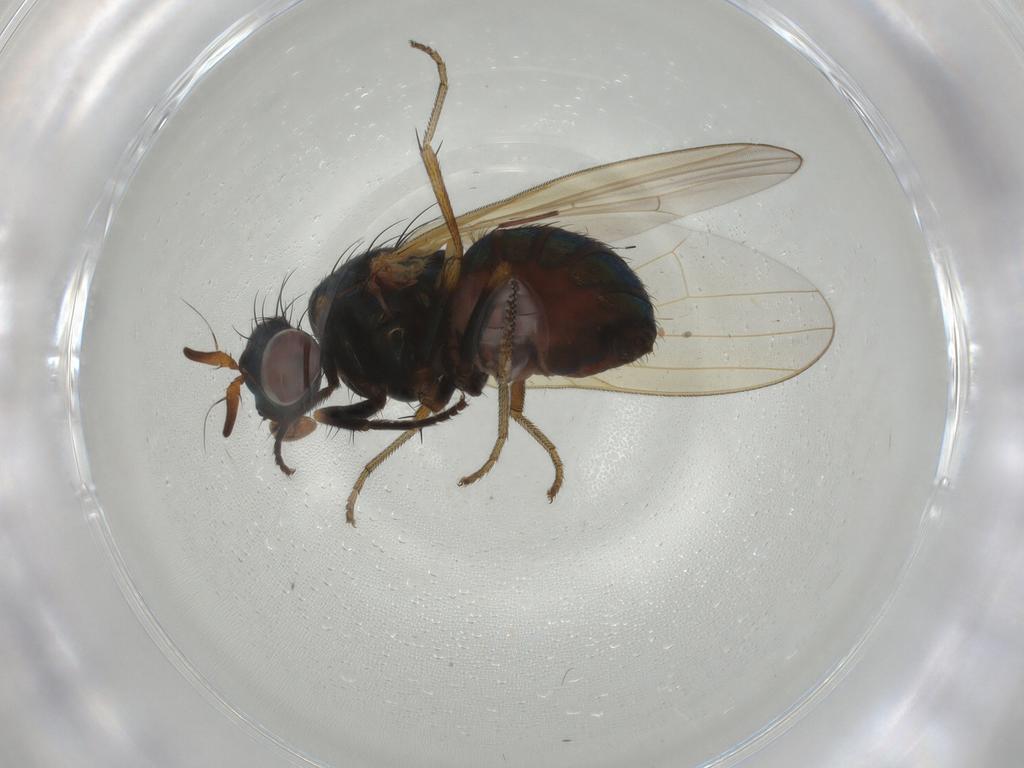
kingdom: Animalia
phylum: Arthropoda
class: Insecta
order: Diptera
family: Lauxaniidae
